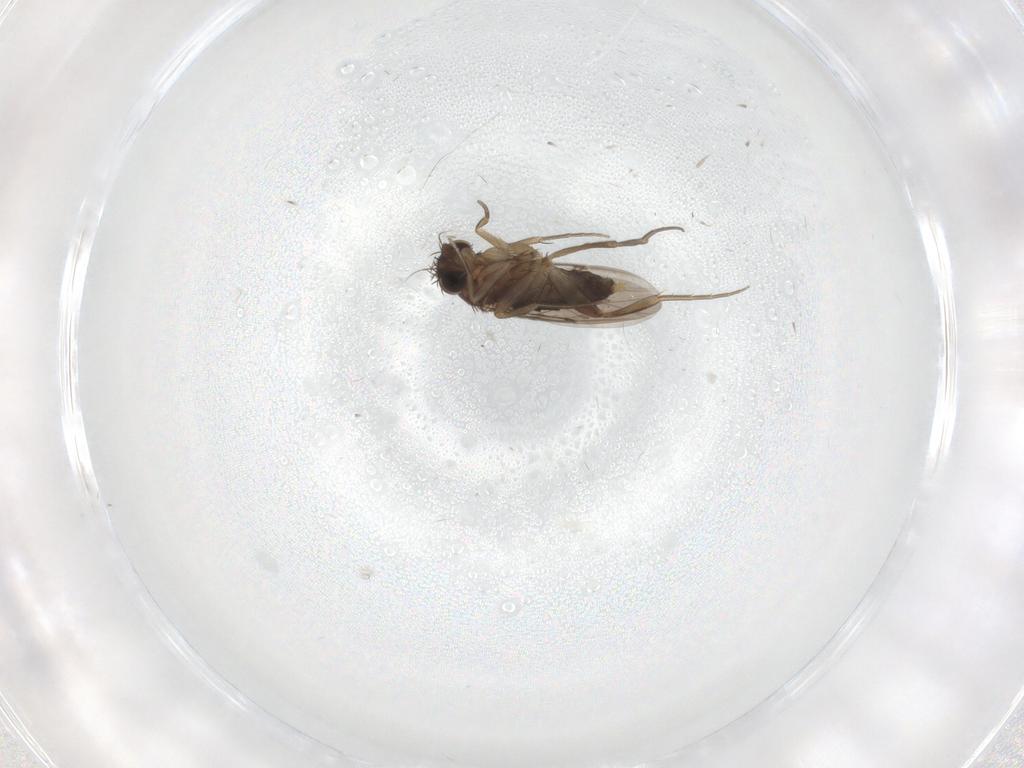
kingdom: Animalia
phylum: Arthropoda
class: Insecta
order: Diptera
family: Phoridae
